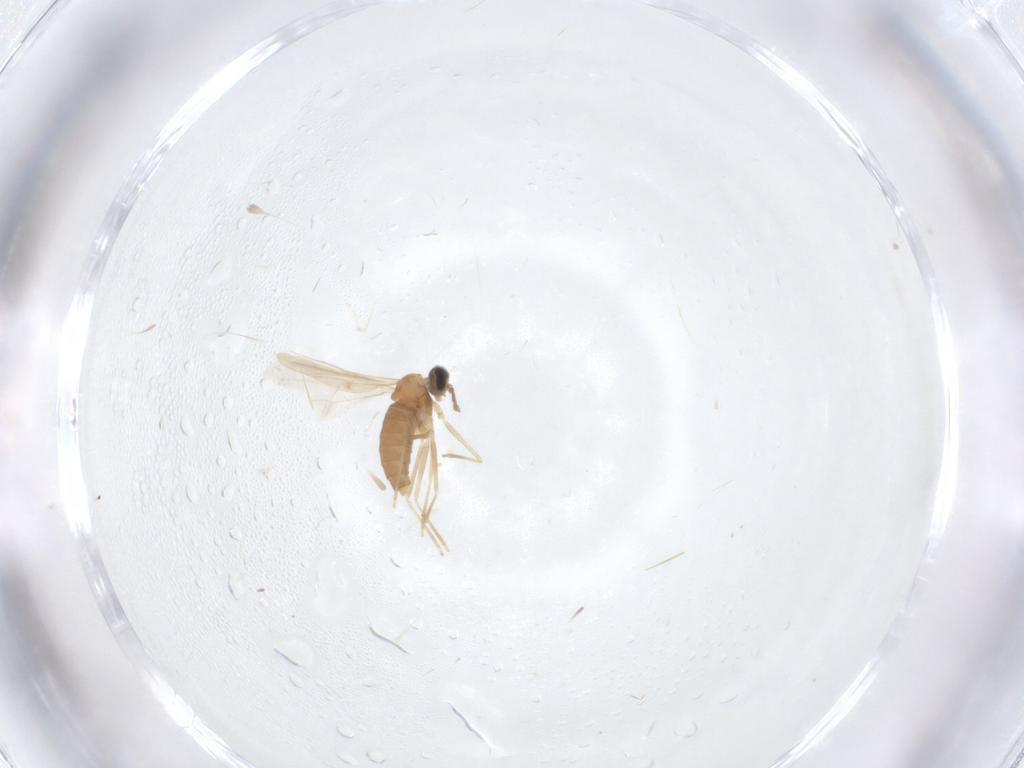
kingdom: Animalia
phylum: Arthropoda
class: Insecta
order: Diptera
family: Cecidomyiidae
